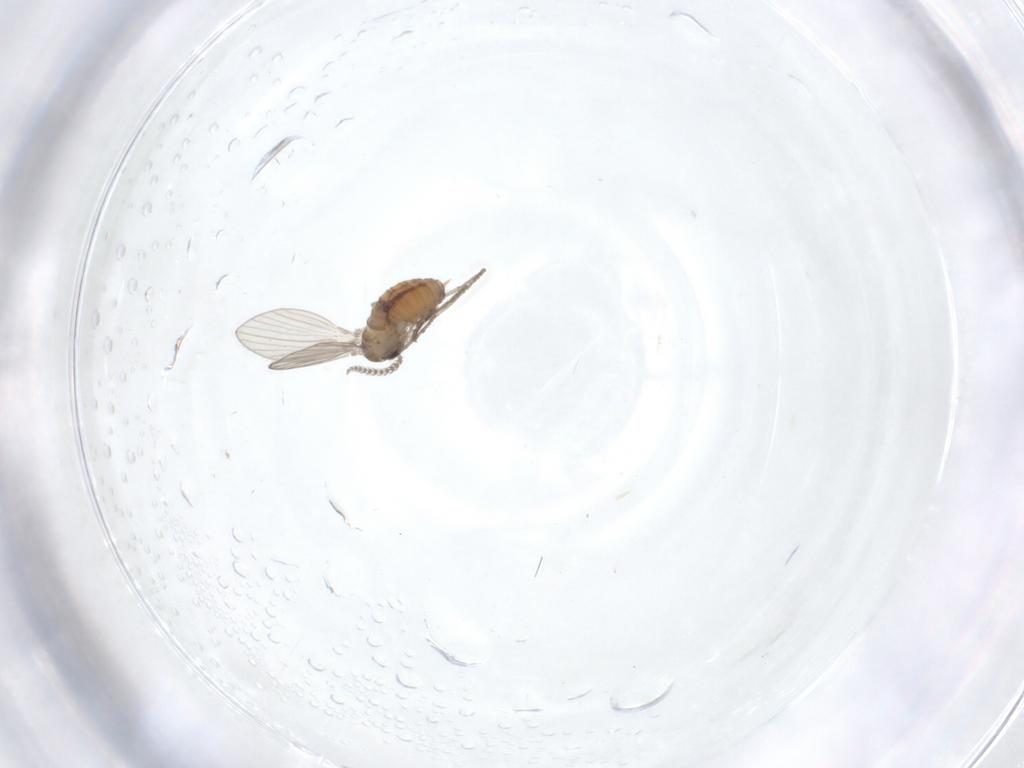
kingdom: Animalia
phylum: Arthropoda
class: Insecta
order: Diptera
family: Psychodidae
